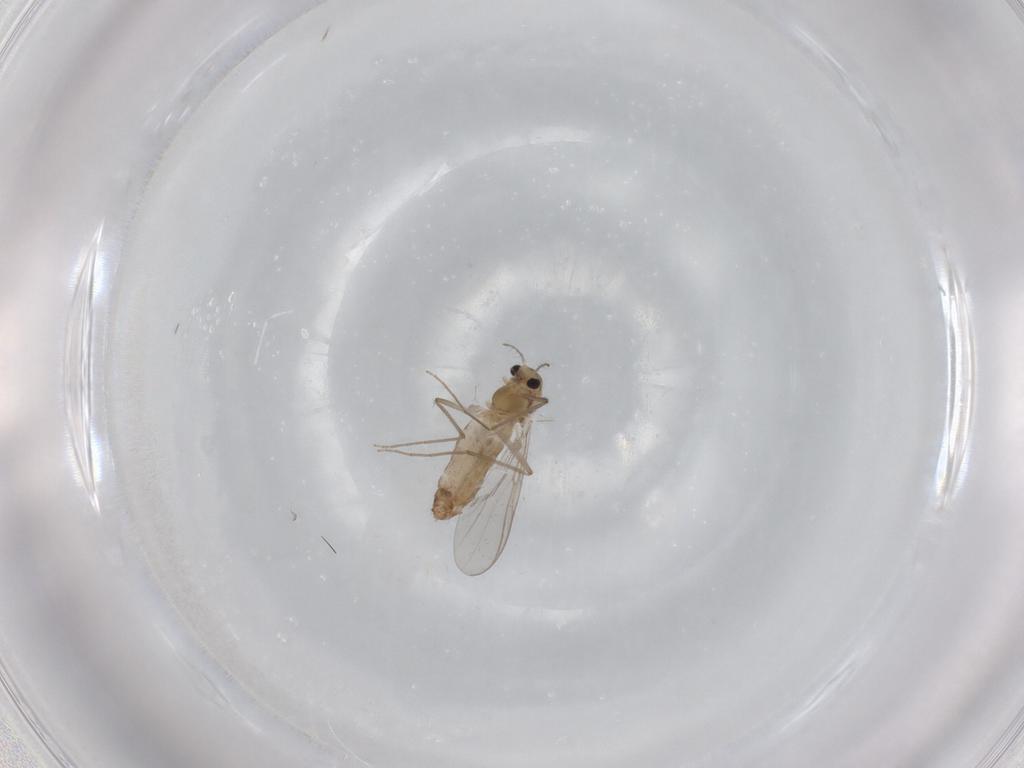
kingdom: Animalia
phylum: Arthropoda
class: Insecta
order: Diptera
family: Chironomidae
